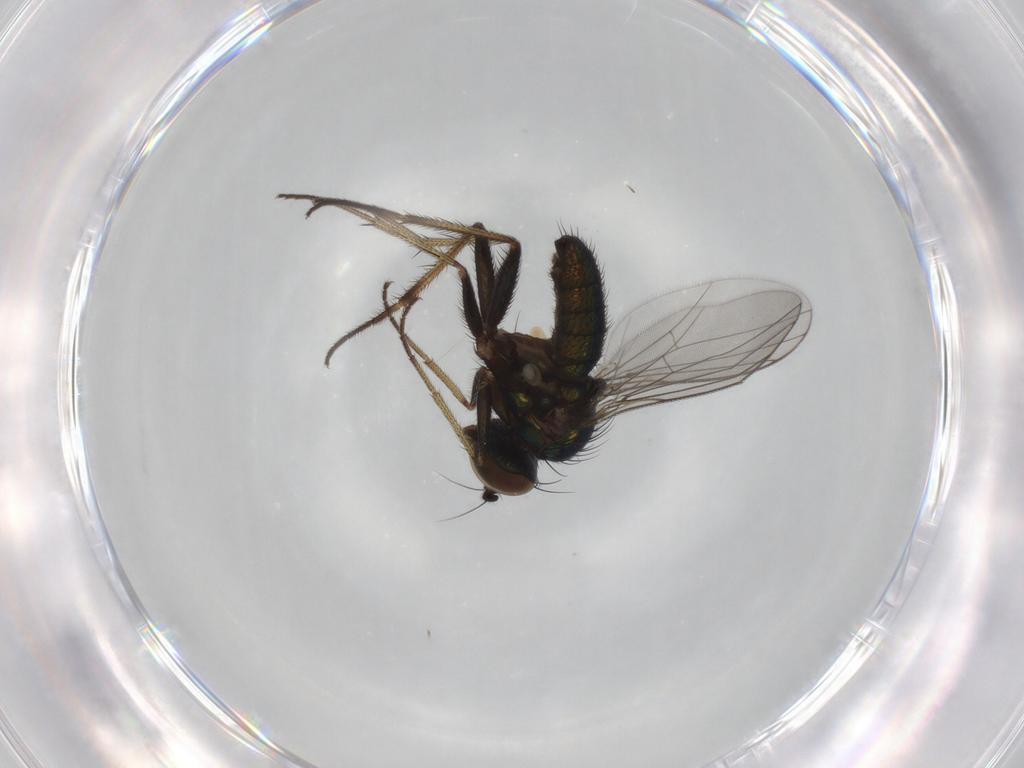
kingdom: Animalia
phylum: Arthropoda
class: Insecta
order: Diptera
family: Dolichopodidae
